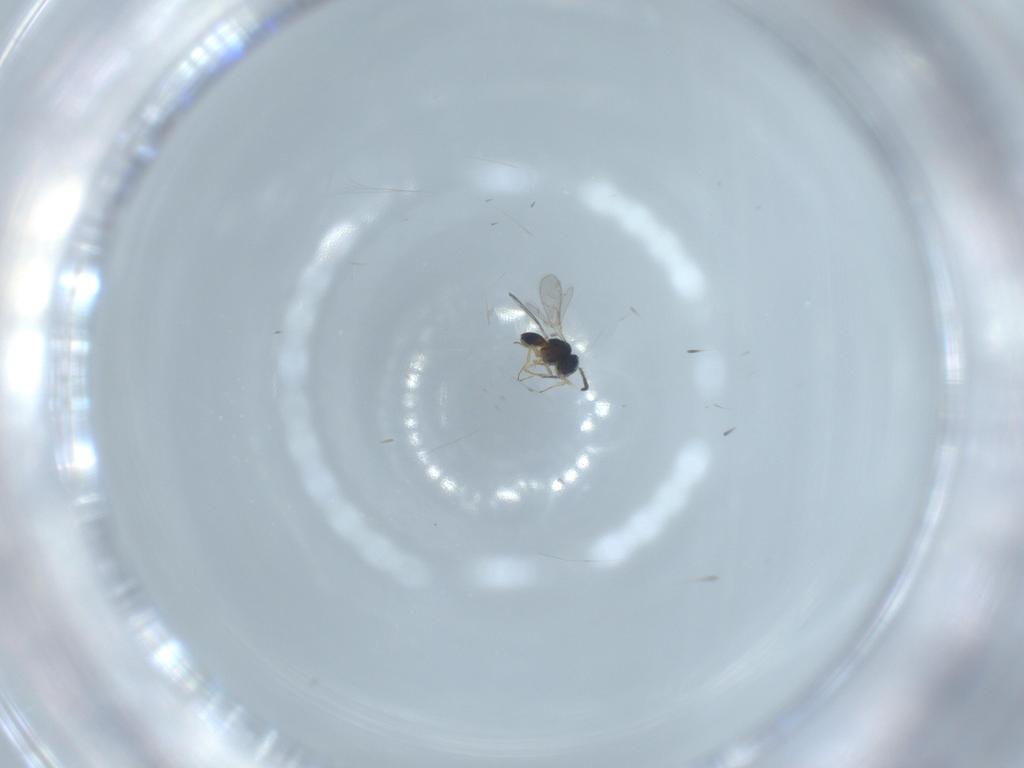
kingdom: Animalia
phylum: Arthropoda
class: Insecta
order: Hymenoptera
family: Scelionidae
